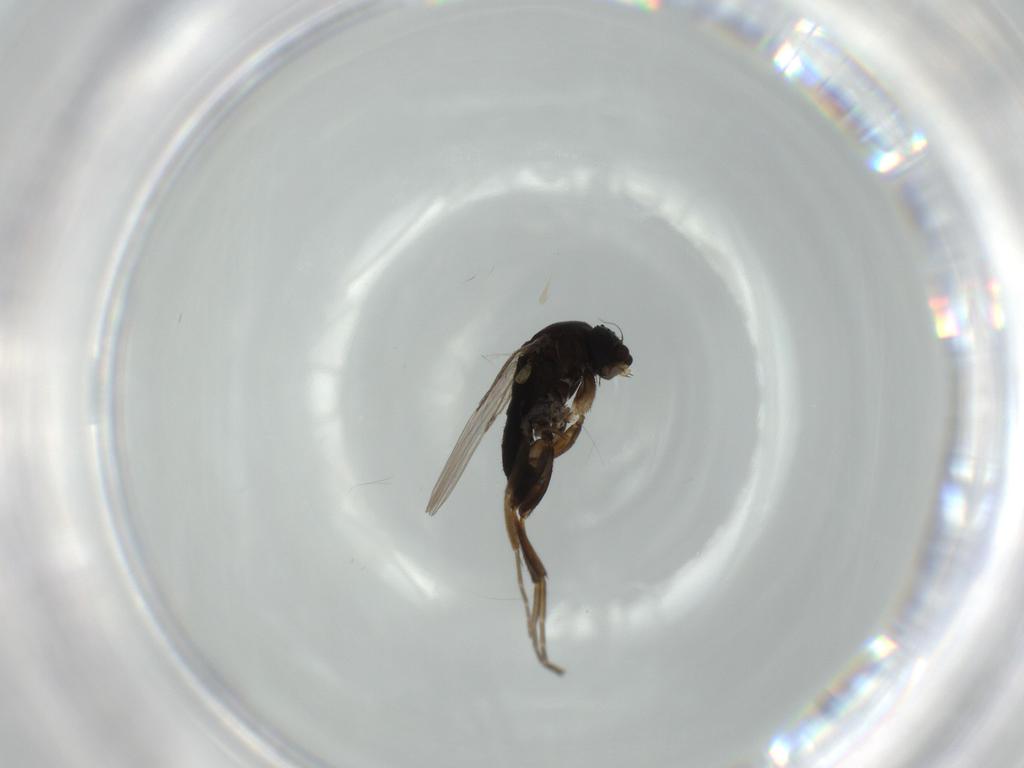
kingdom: Animalia
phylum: Arthropoda
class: Insecta
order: Diptera
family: Phoridae
